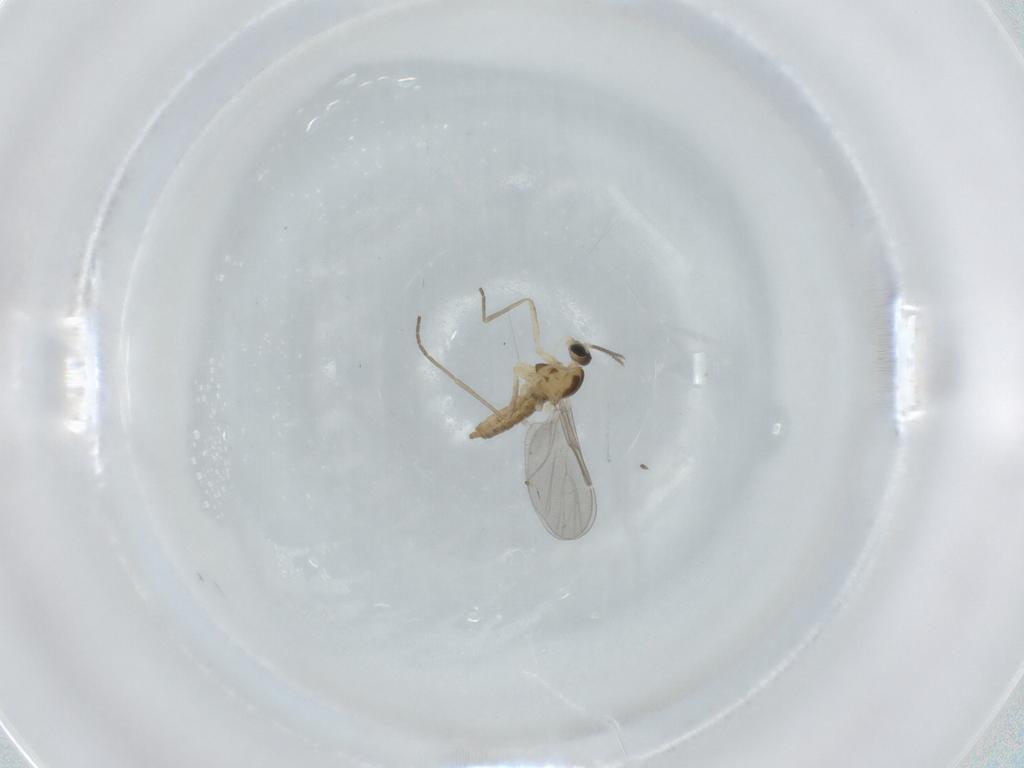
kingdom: Animalia
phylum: Arthropoda
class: Insecta
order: Diptera
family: Cecidomyiidae
